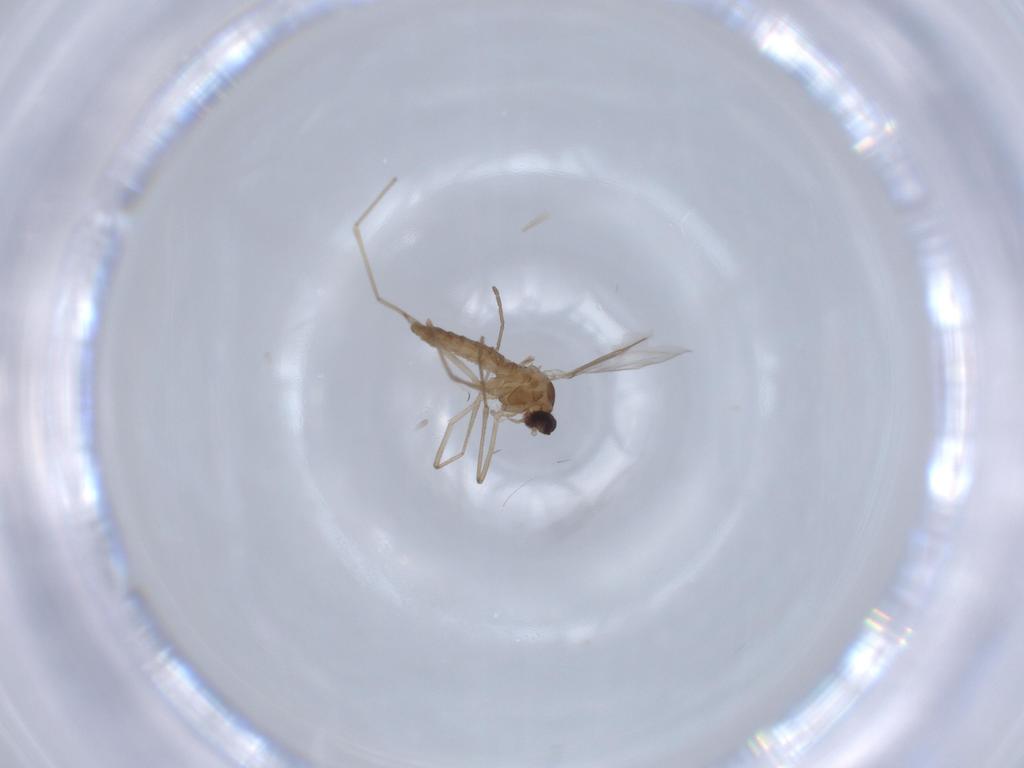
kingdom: Animalia
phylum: Arthropoda
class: Insecta
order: Diptera
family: Cecidomyiidae
